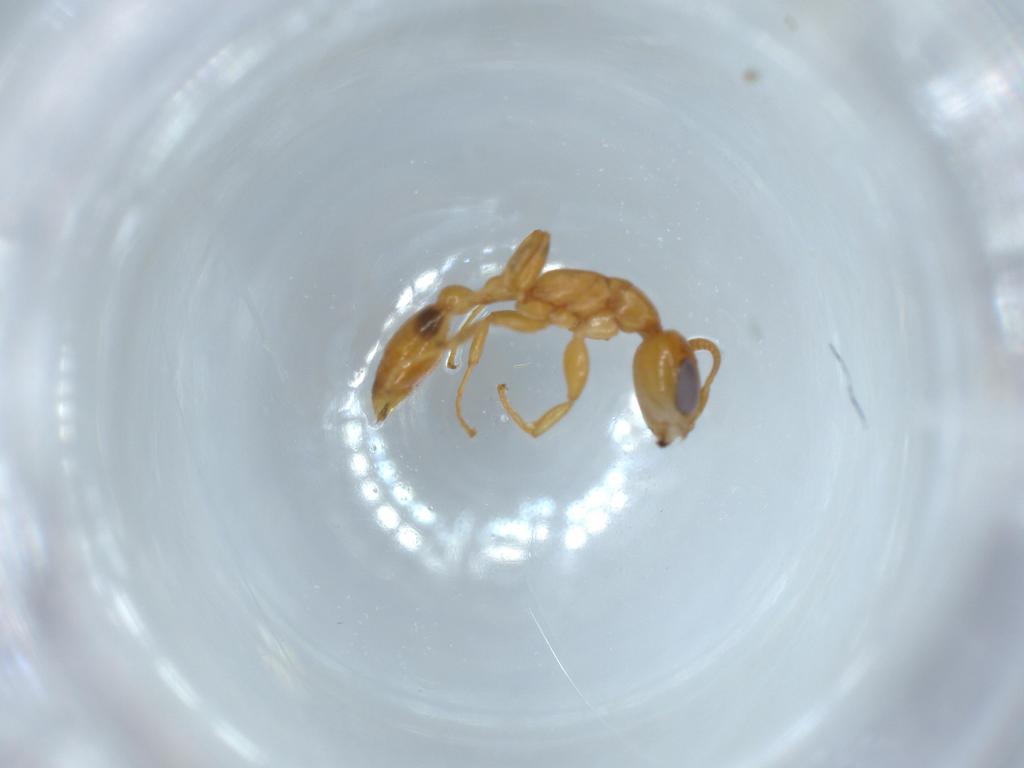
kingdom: Animalia
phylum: Arthropoda
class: Insecta
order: Hymenoptera
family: Formicidae
